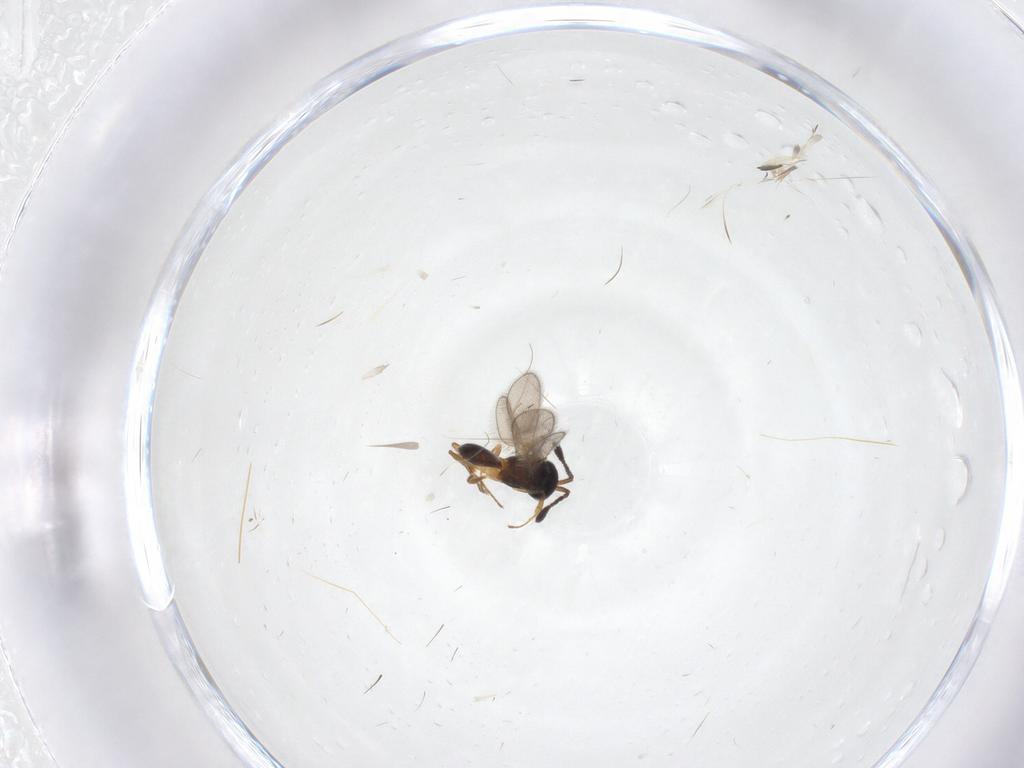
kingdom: Animalia
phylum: Arthropoda
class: Insecta
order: Hymenoptera
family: Scelionidae
